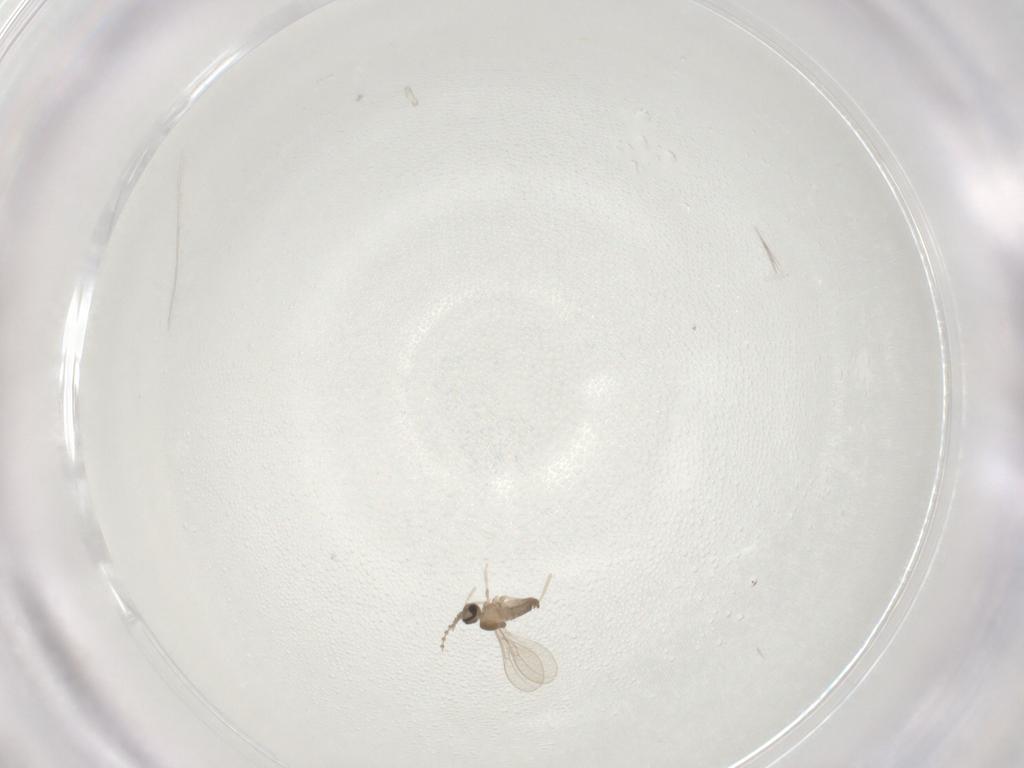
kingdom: Animalia
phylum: Arthropoda
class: Insecta
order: Diptera
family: Cecidomyiidae
